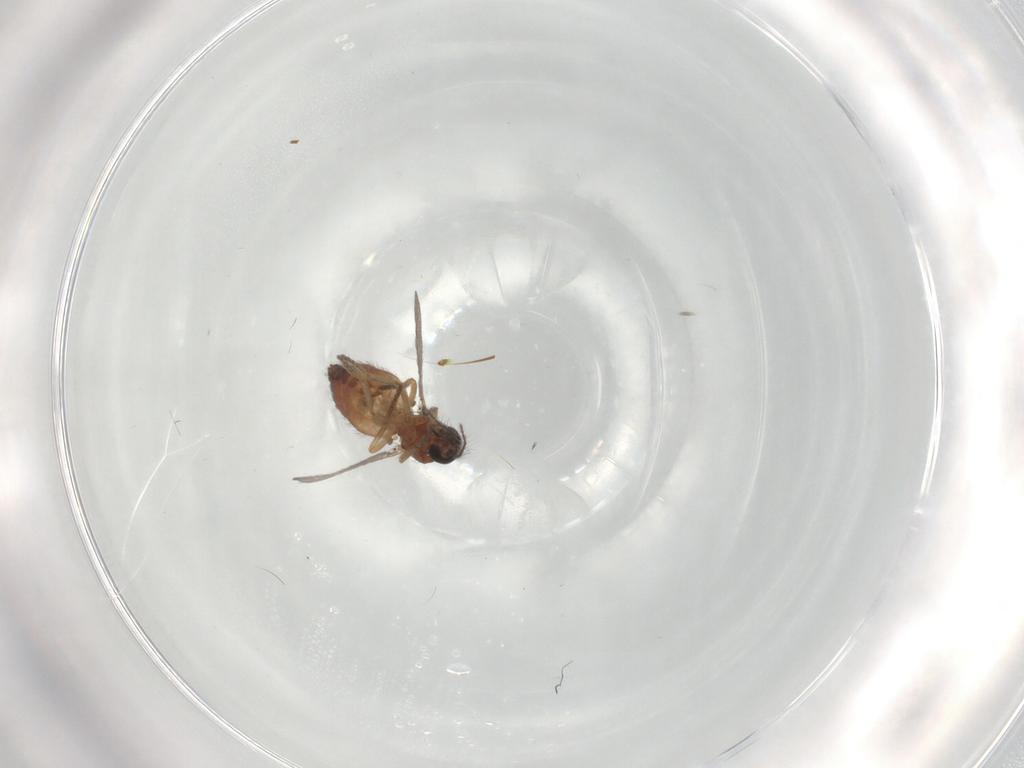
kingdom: Animalia
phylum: Arthropoda
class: Insecta
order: Diptera
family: Ceratopogonidae
